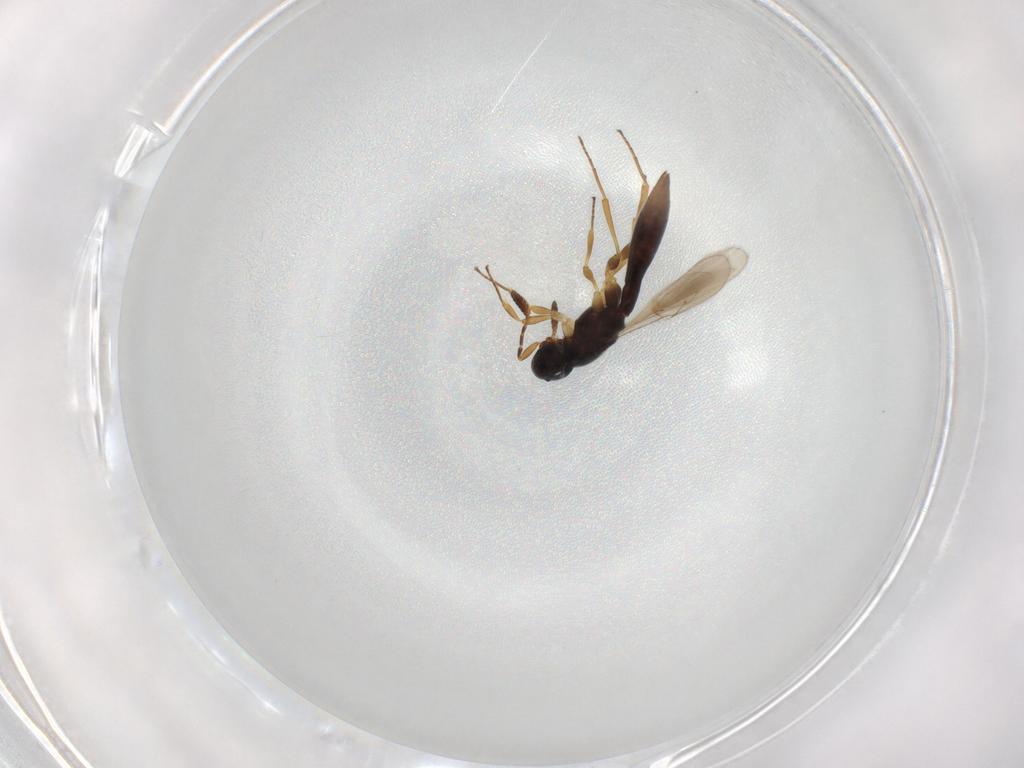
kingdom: Animalia
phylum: Arthropoda
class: Insecta
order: Hymenoptera
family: Scelionidae
